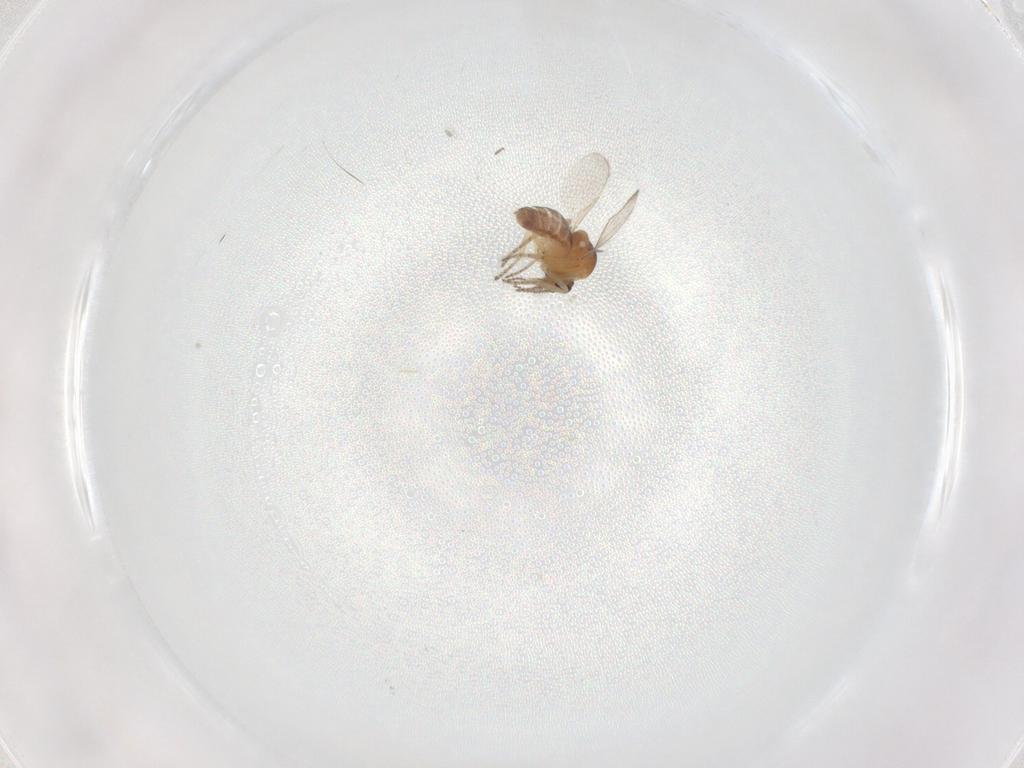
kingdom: Animalia
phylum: Arthropoda
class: Insecta
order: Diptera
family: Ceratopogonidae
